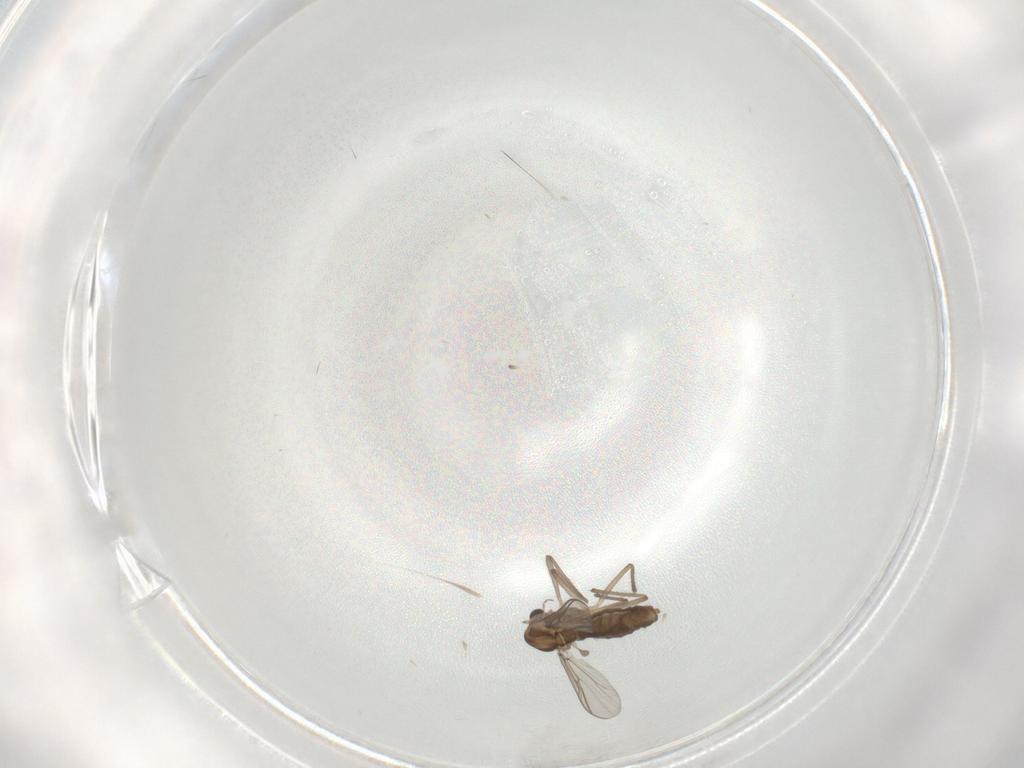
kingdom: Animalia
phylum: Arthropoda
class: Insecta
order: Diptera
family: Chironomidae
